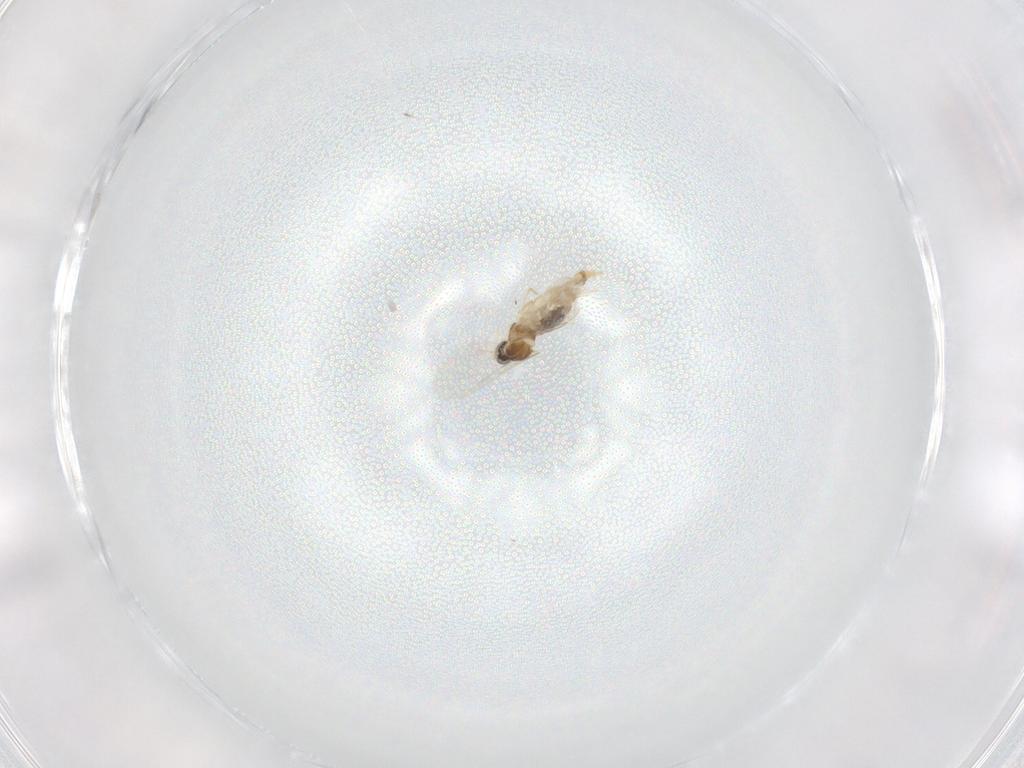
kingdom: Animalia
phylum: Arthropoda
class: Insecta
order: Diptera
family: Cecidomyiidae
